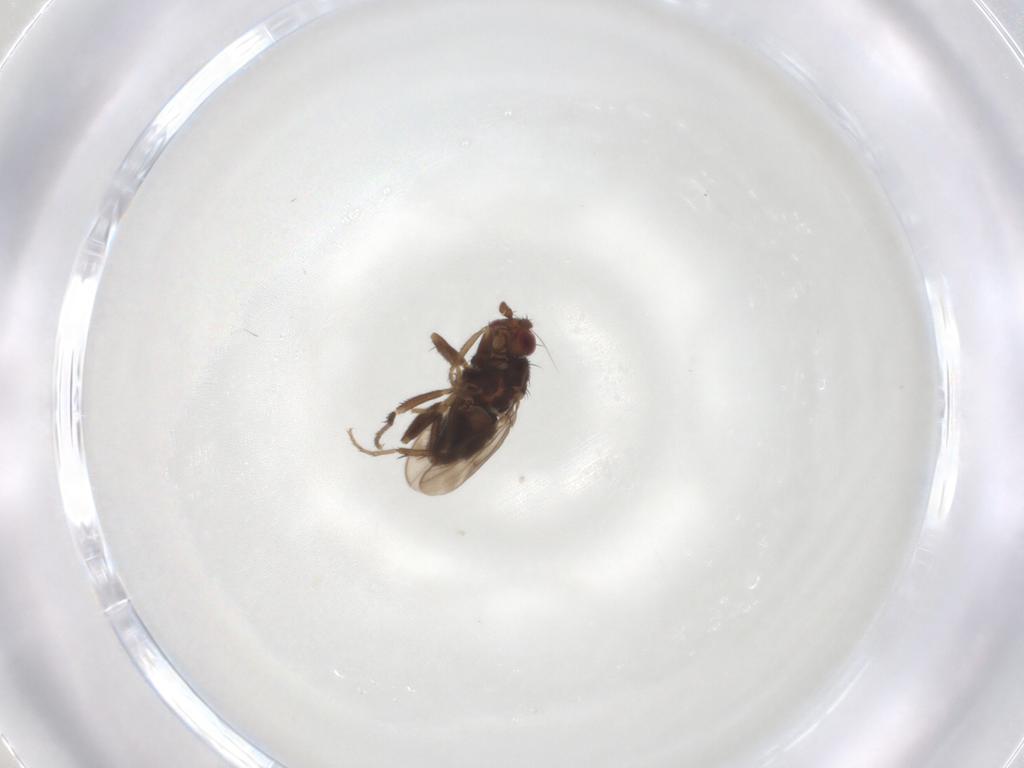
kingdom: Animalia
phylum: Arthropoda
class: Insecta
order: Diptera
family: Sphaeroceridae
